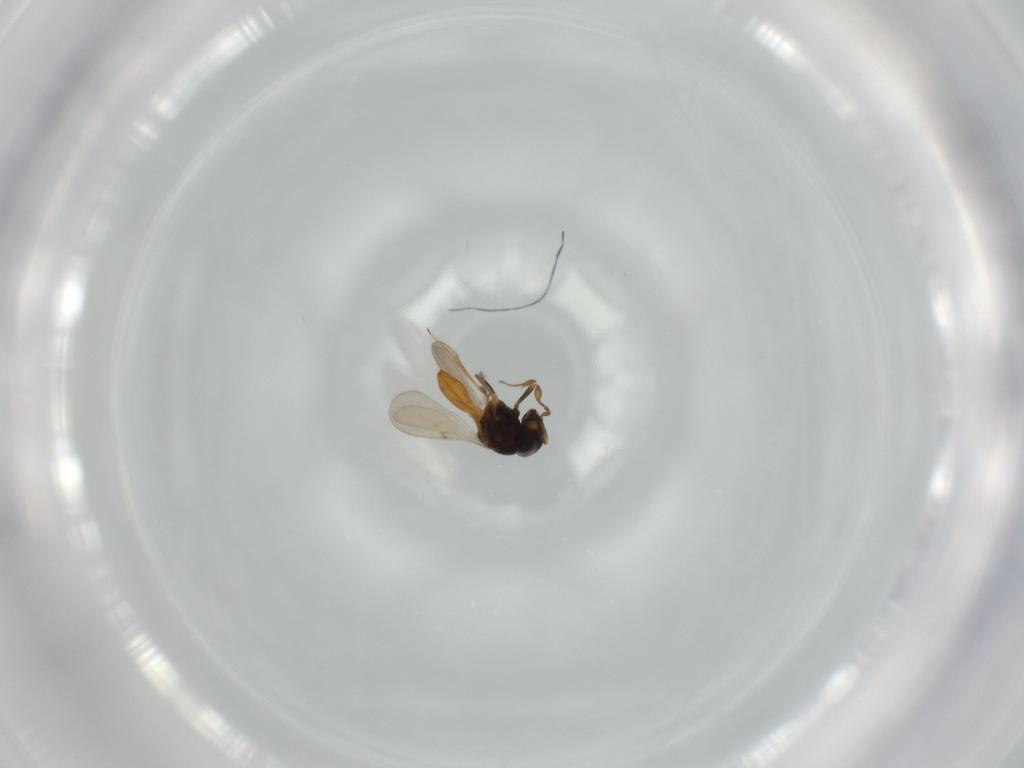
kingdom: Animalia
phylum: Arthropoda
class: Insecta
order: Hymenoptera
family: Scelionidae
